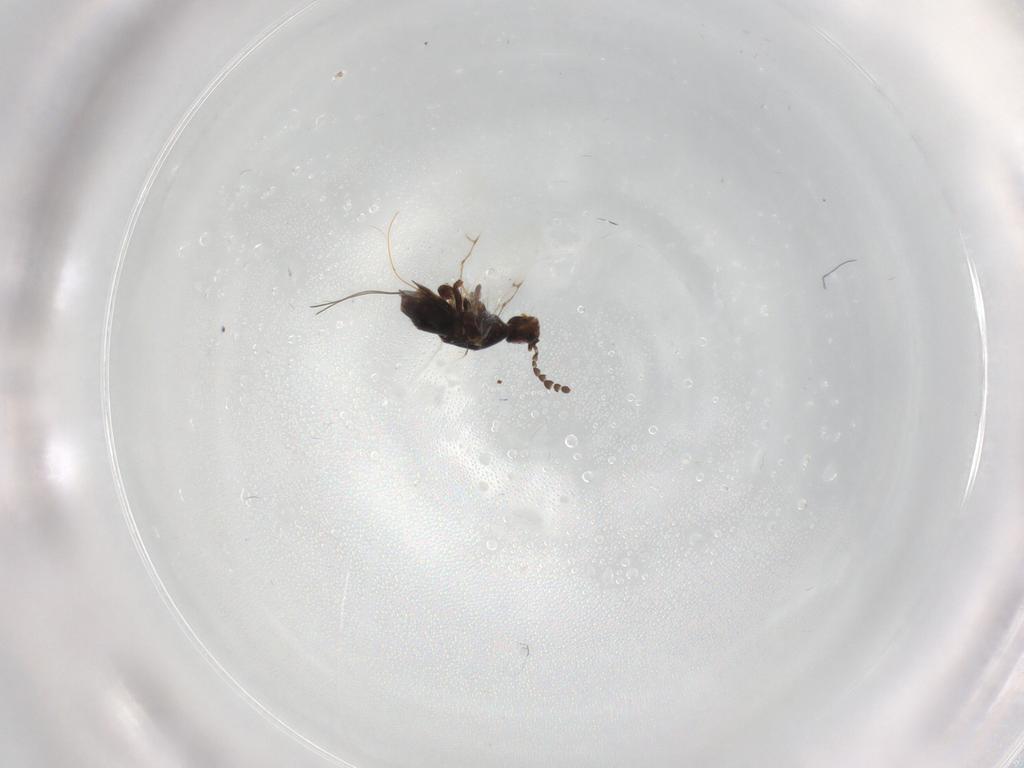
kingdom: Animalia
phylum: Arthropoda
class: Insecta
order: Hymenoptera
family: Agaonidae
